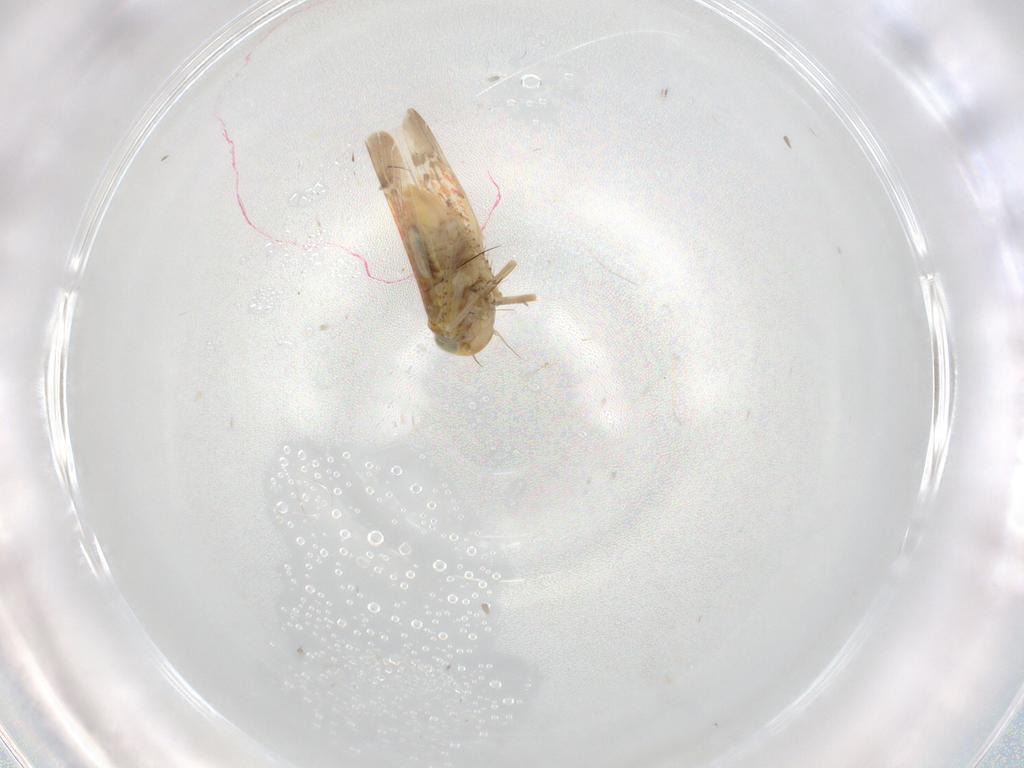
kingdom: Animalia
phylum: Arthropoda
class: Insecta
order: Hemiptera
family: Cicadellidae
